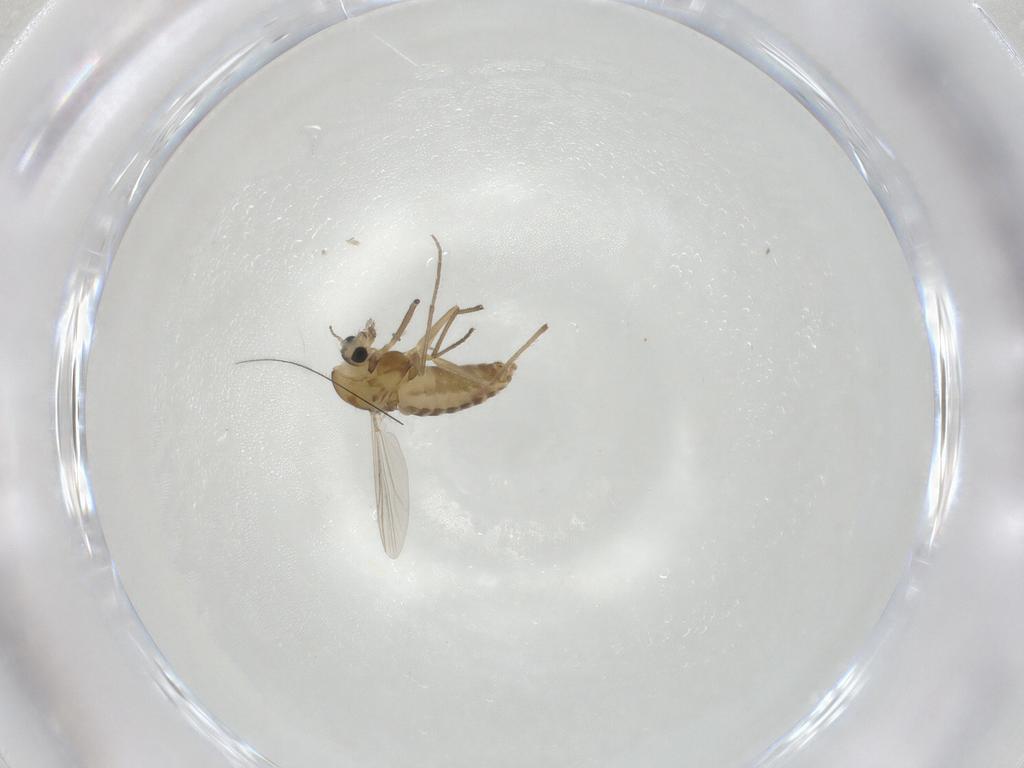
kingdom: Animalia
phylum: Arthropoda
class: Insecta
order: Diptera
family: Chironomidae
